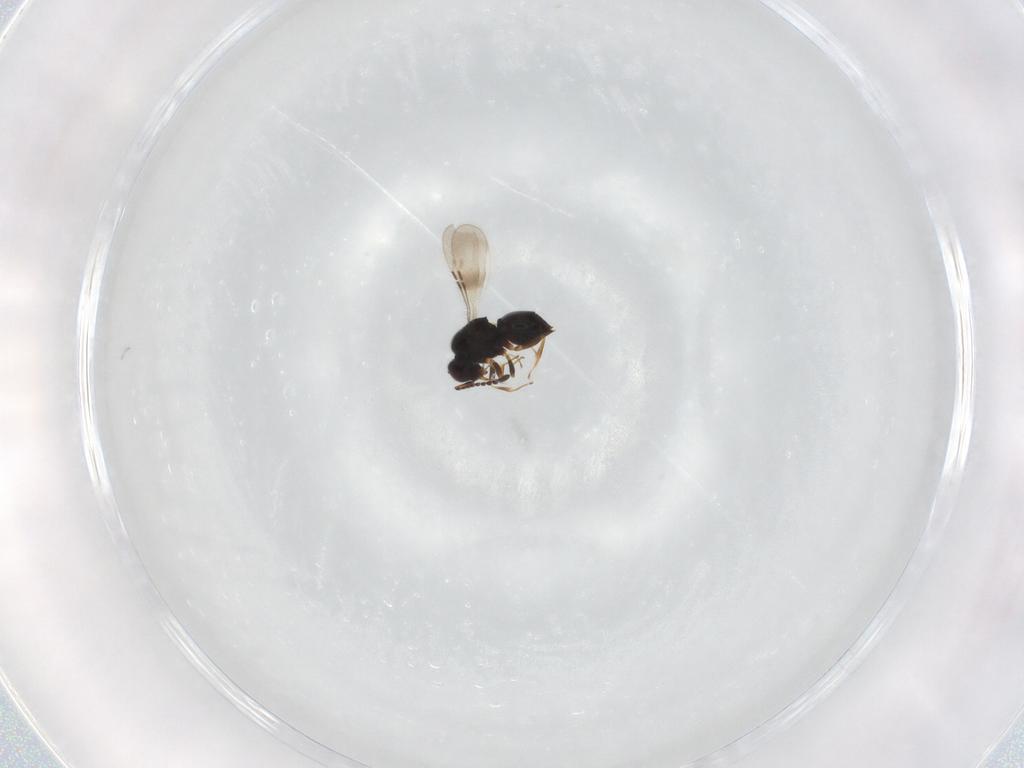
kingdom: Animalia
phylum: Arthropoda
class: Insecta
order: Hymenoptera
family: Ceraphronidae
